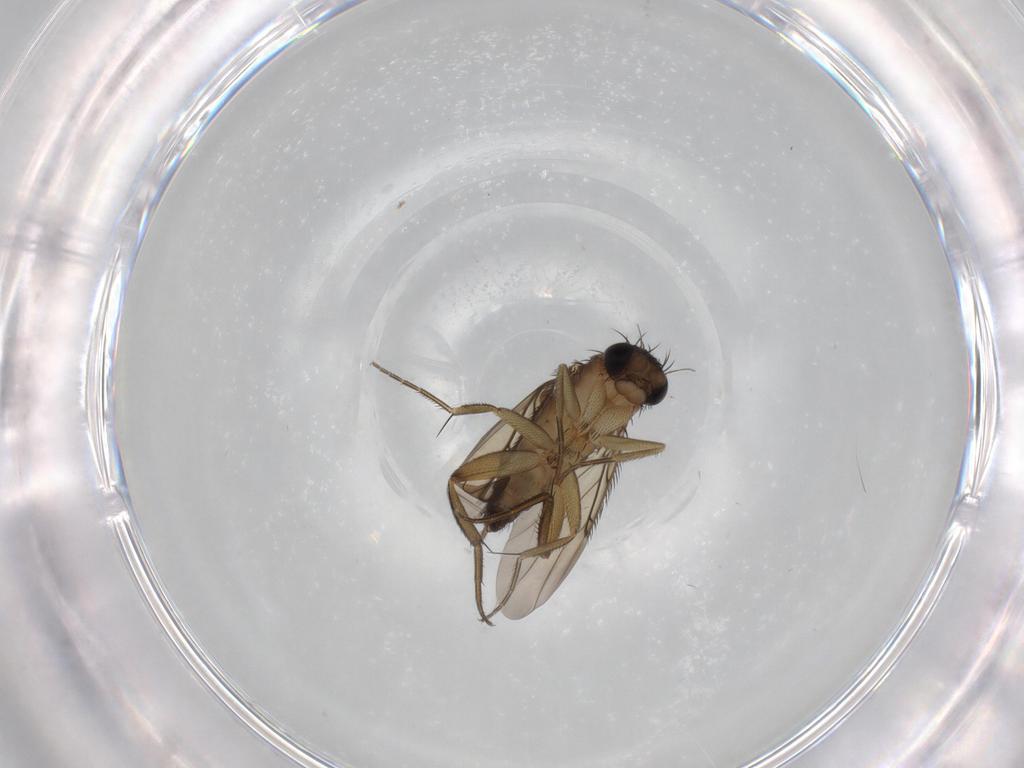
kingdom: Animalia
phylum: Arthropoda
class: Insecta
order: Diptera
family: Phoridae
